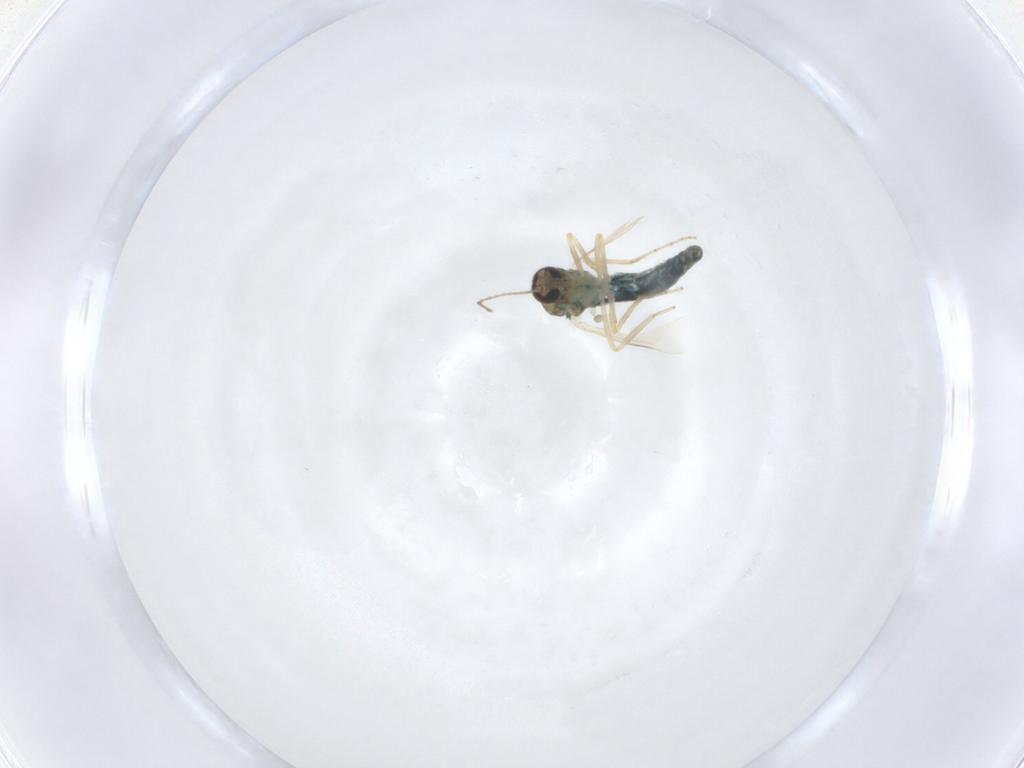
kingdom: Animalia
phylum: Arthropoda
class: Insecta
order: Diptera
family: Ceratopogonidae
